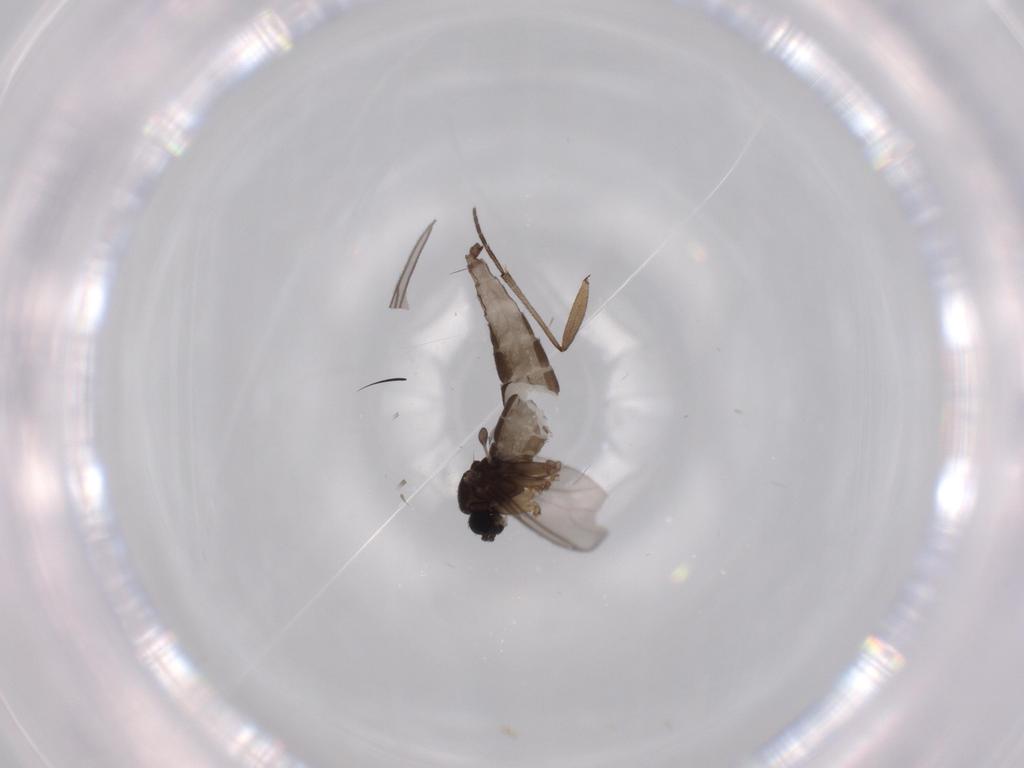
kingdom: Animalia
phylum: Arthropoda
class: Insecta
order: Diptera
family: Sciaridae
